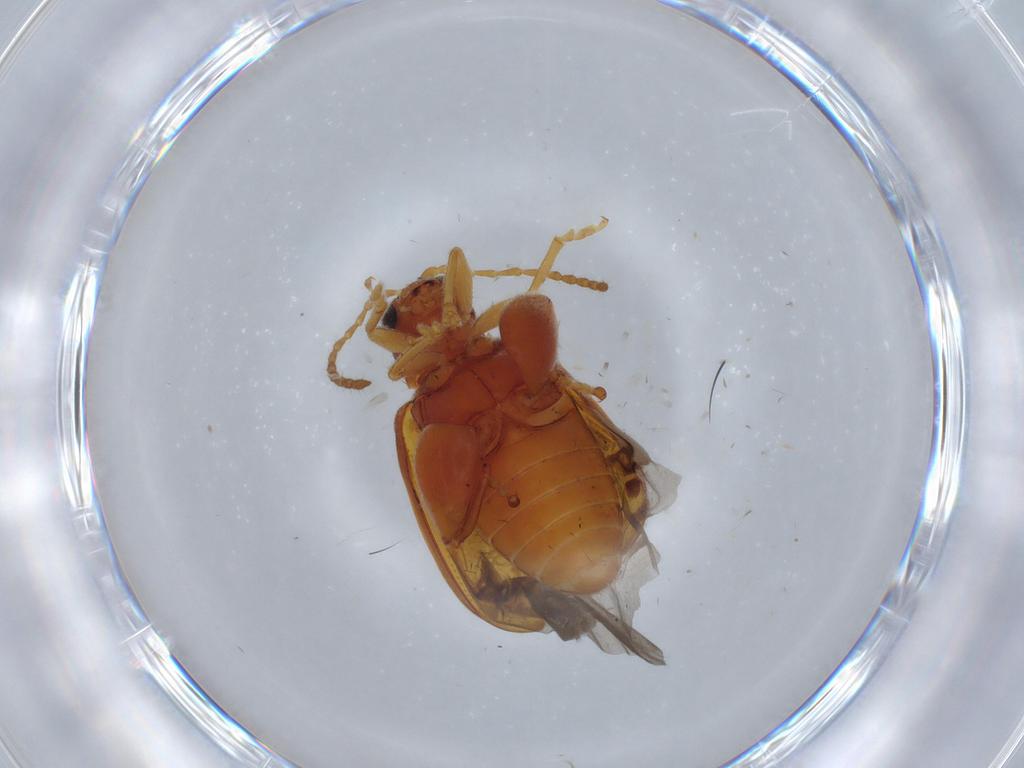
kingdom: Animalia
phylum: Arthropoda
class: Insecta
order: Coleoptera
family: Chrysomelidae
